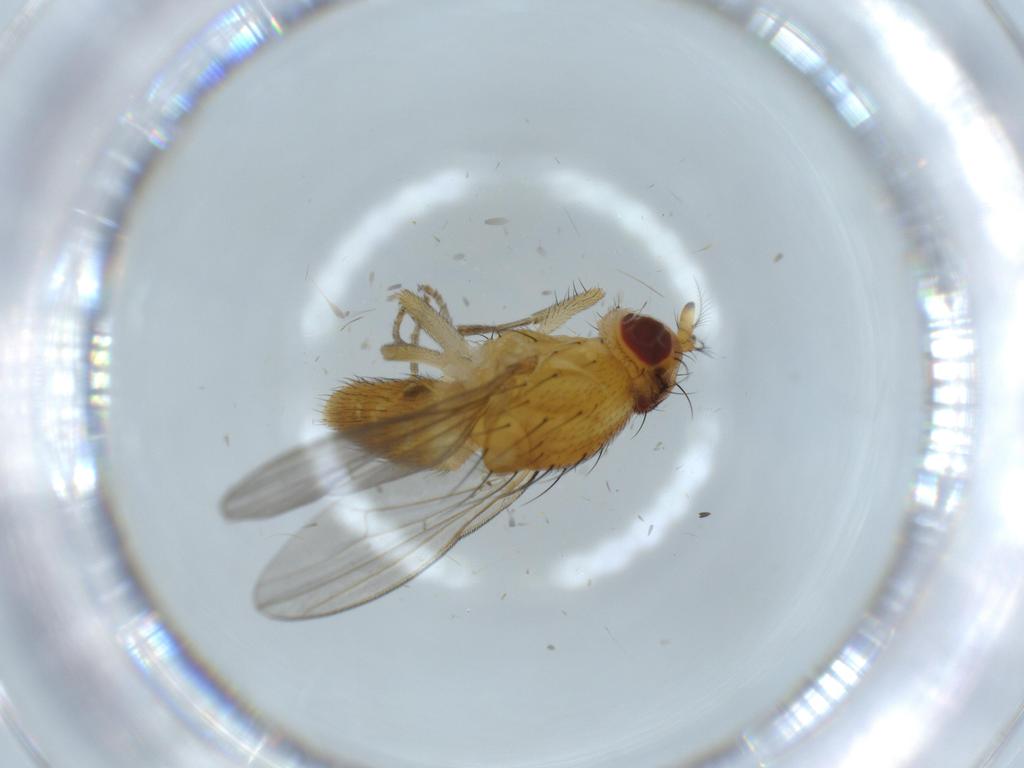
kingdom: Animalia
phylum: Arthropoda
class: Insecta
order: Diptera
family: Lauxaniidae
